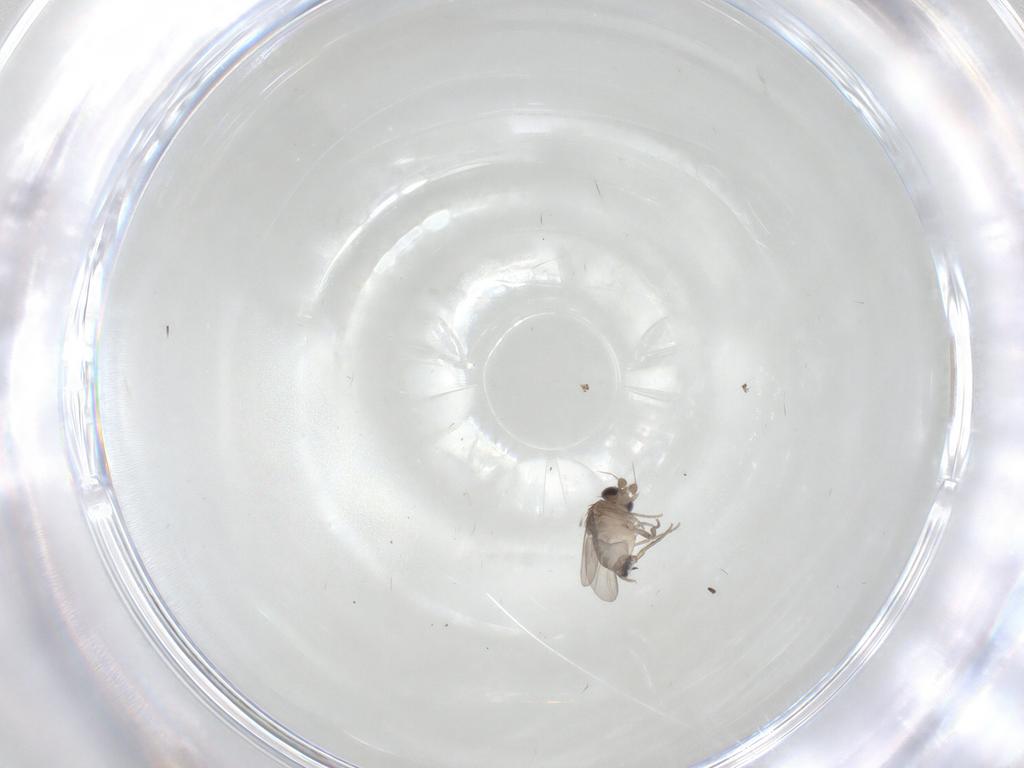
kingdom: Animalia
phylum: Arthropoda
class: Insecta
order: Diptera
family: Phoridae
